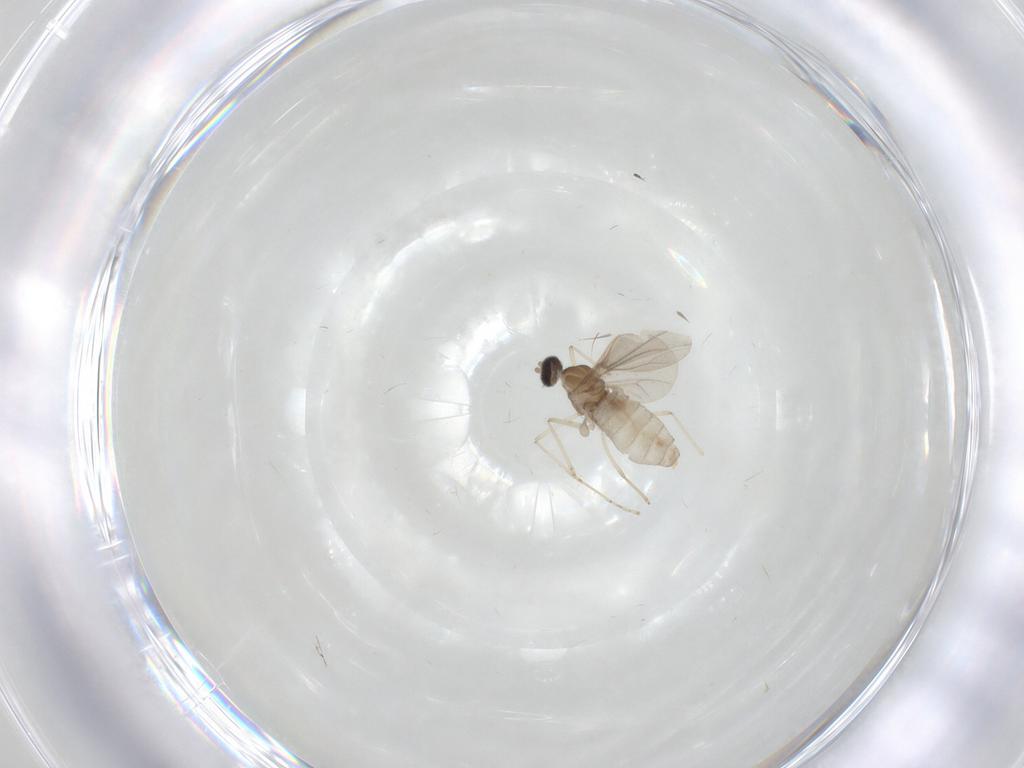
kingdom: Animalia
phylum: Arthropoda
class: Insecta
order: Diptera
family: Cecidomyiidae
